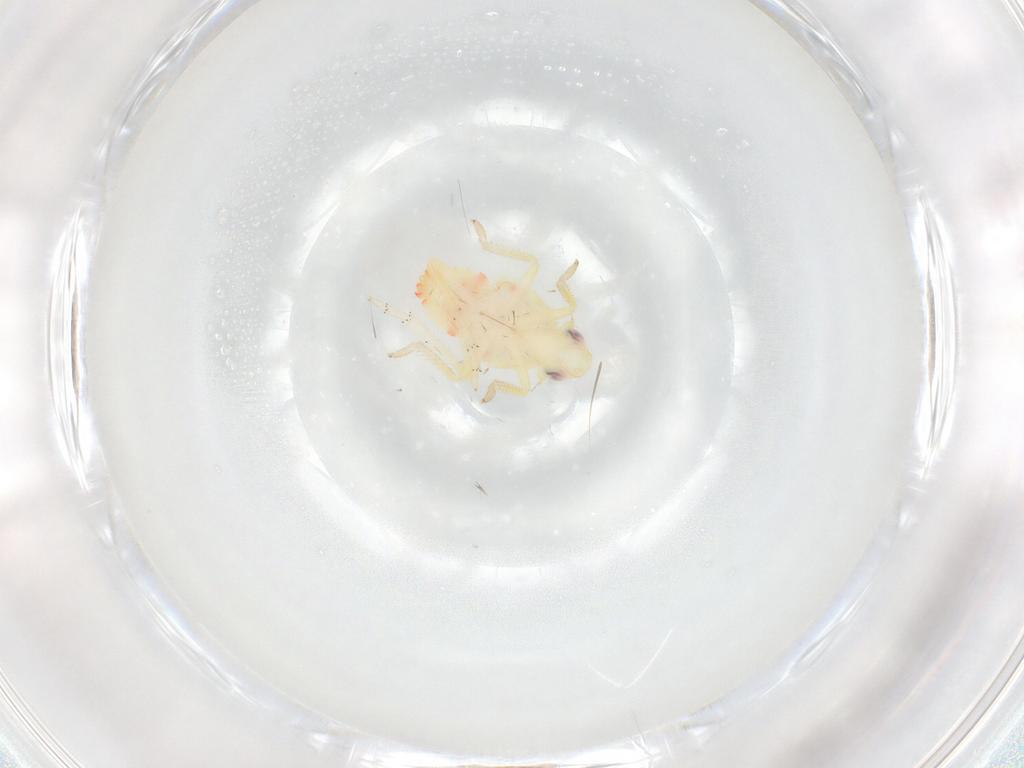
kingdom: Animalia
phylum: Arthropoda
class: Insecta
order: Hemiptera
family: Tropiduchidae
